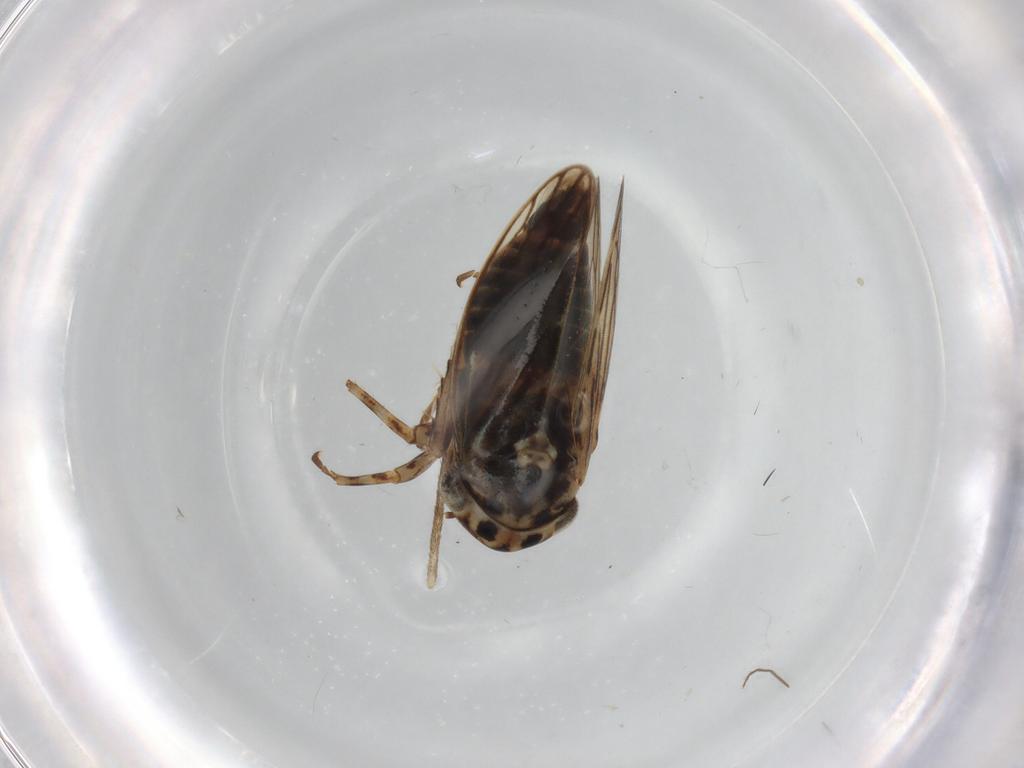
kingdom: Animalia
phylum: Arthropoda
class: Insecta
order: Hemiptera
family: Cicadellidae
